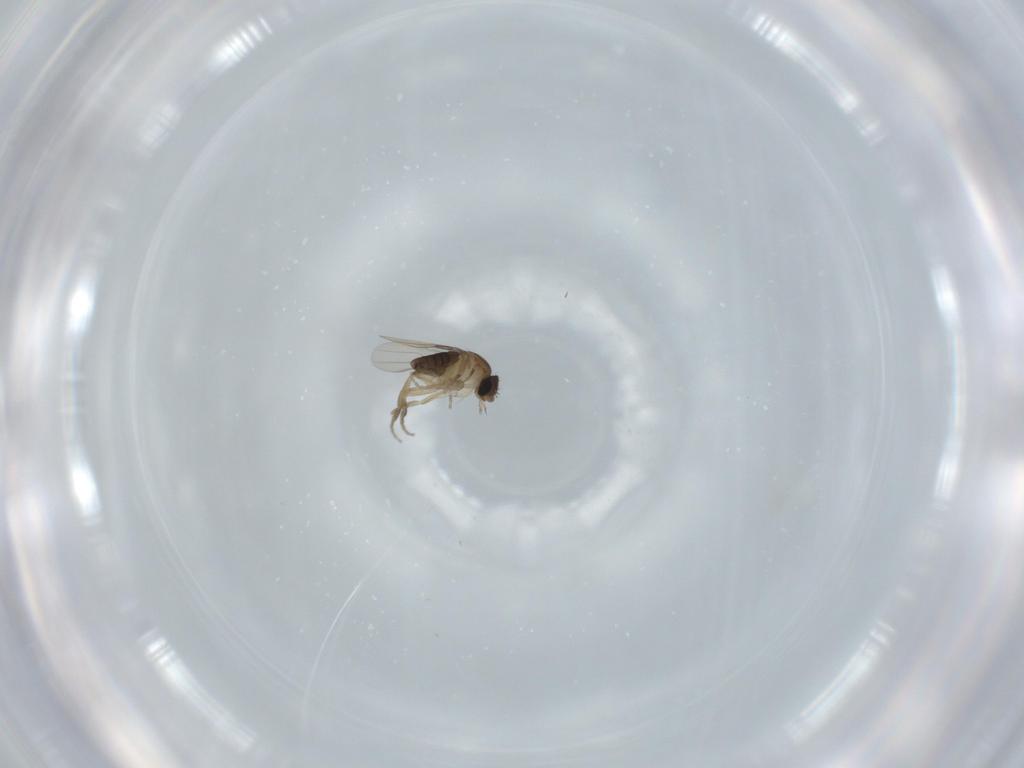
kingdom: Animalia
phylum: Arthropoda
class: Insecta
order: Diptera
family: Phoridae
